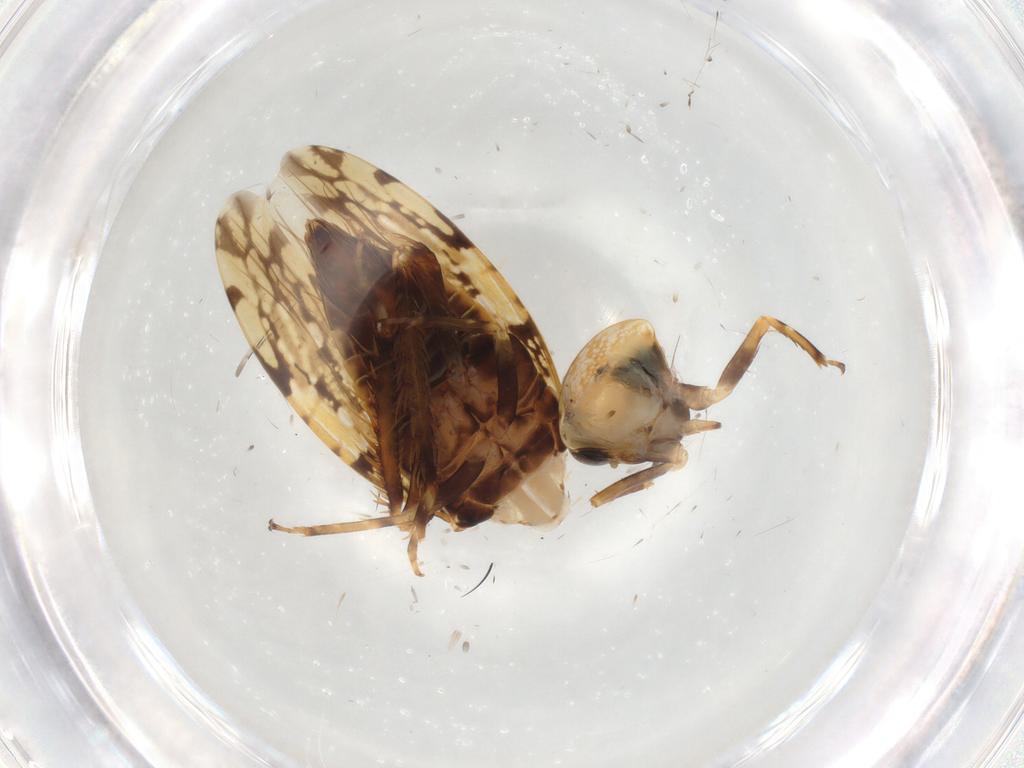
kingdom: Animalia
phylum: Arthropoda
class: Insecta
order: Hemiptera
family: Cicadellidae
